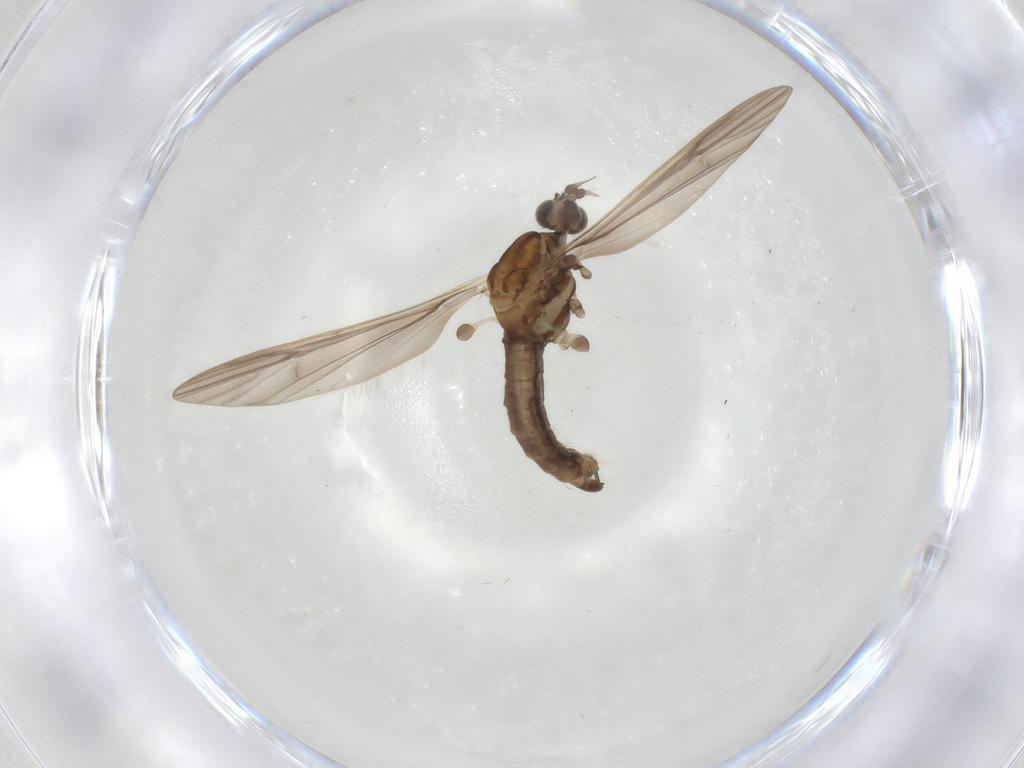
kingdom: Animalia
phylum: Arthropoda
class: Insecta
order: Diptera
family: Limoniidae
